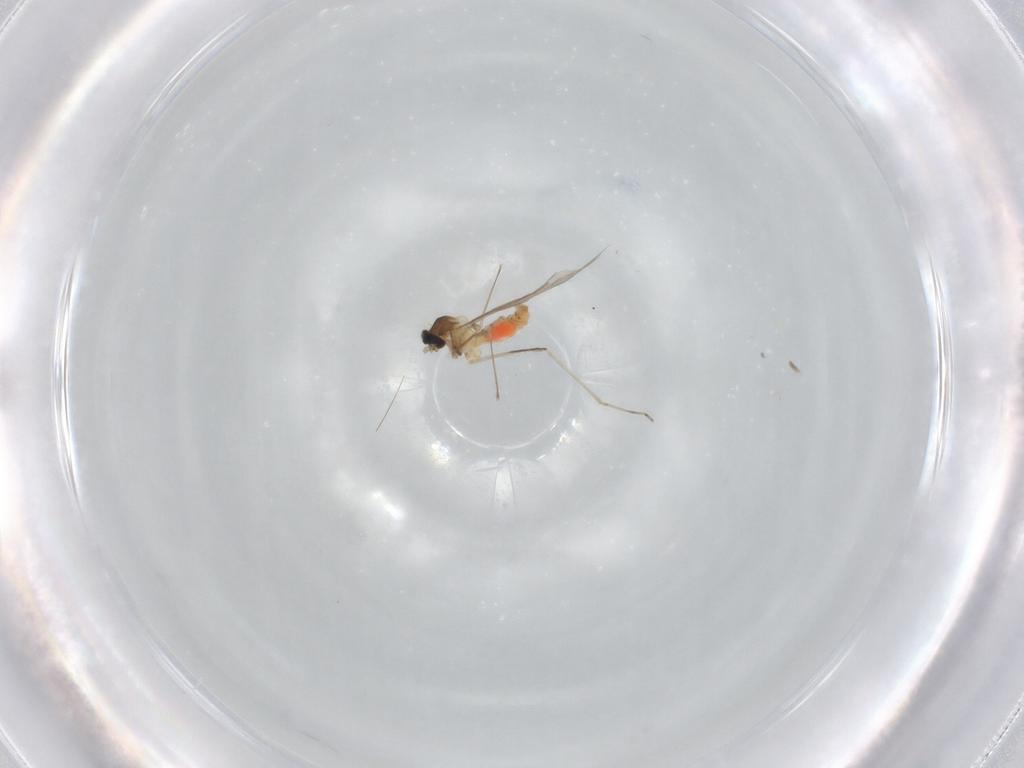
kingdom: Animalia
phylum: Arthropoda
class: Insecta
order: Diptera
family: Cecidomyiidae
